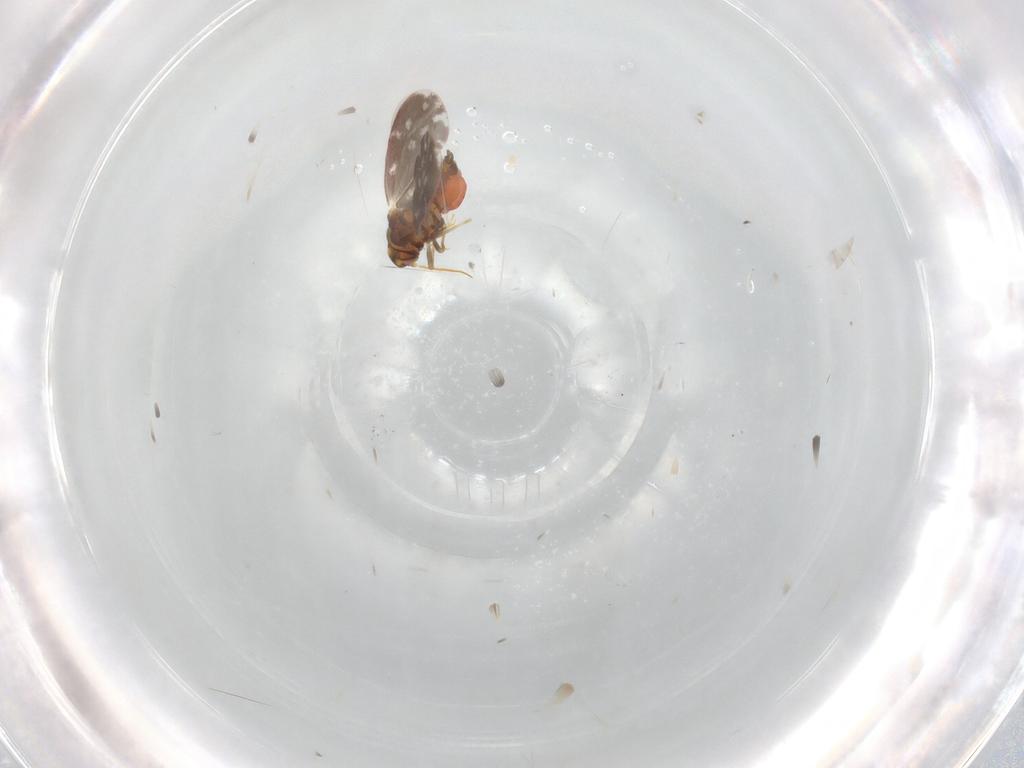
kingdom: Animalia
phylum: Arthropoda
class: Insecta
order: Hemiptera
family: Aleyrodidae
